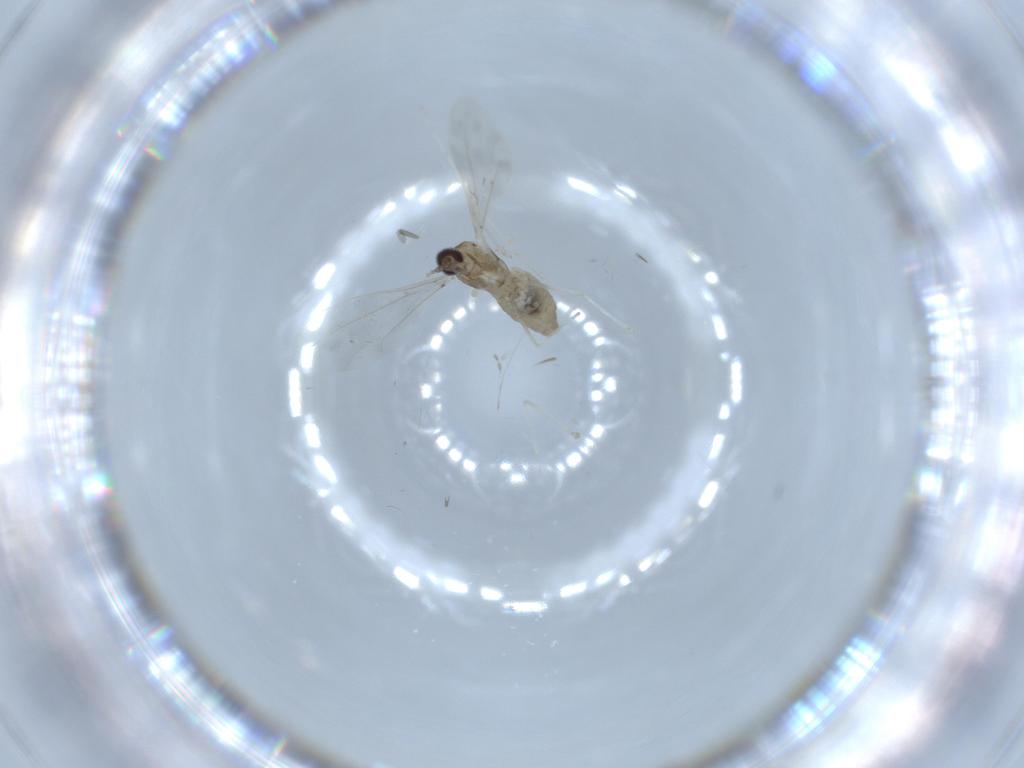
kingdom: Animalia
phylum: Arthropoda
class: Insecta
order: Diptera
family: Cecidomyiidae
